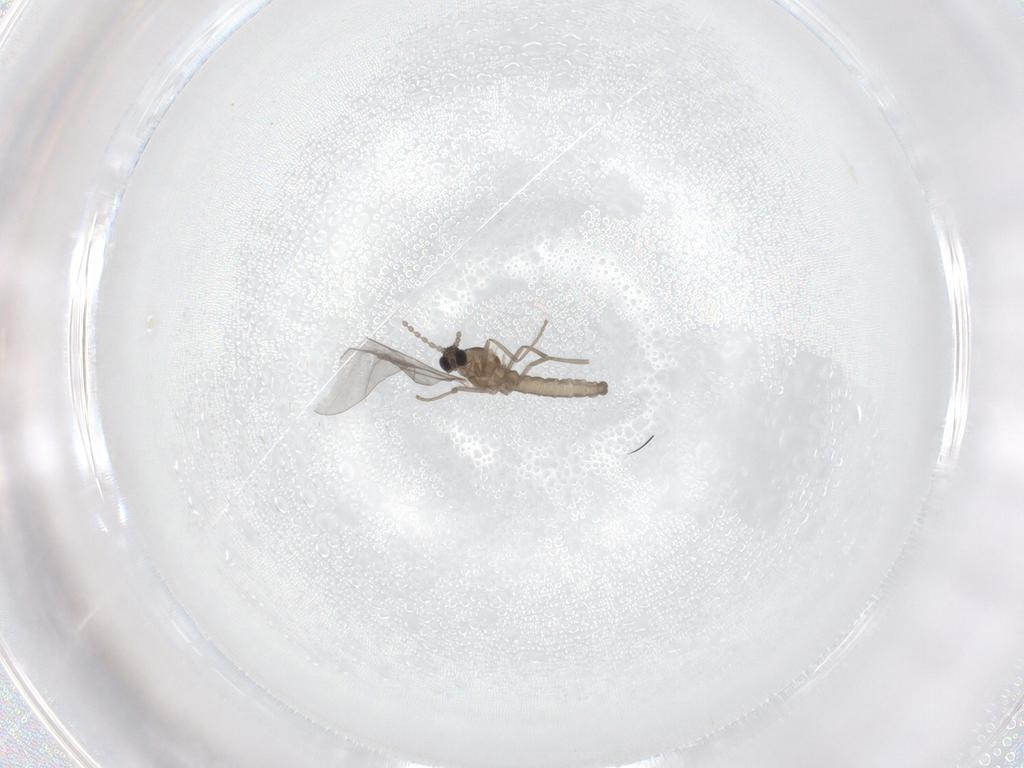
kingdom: Animalia
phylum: Arthropoda
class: Insecta
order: Diptera
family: Cecidomyiidae
